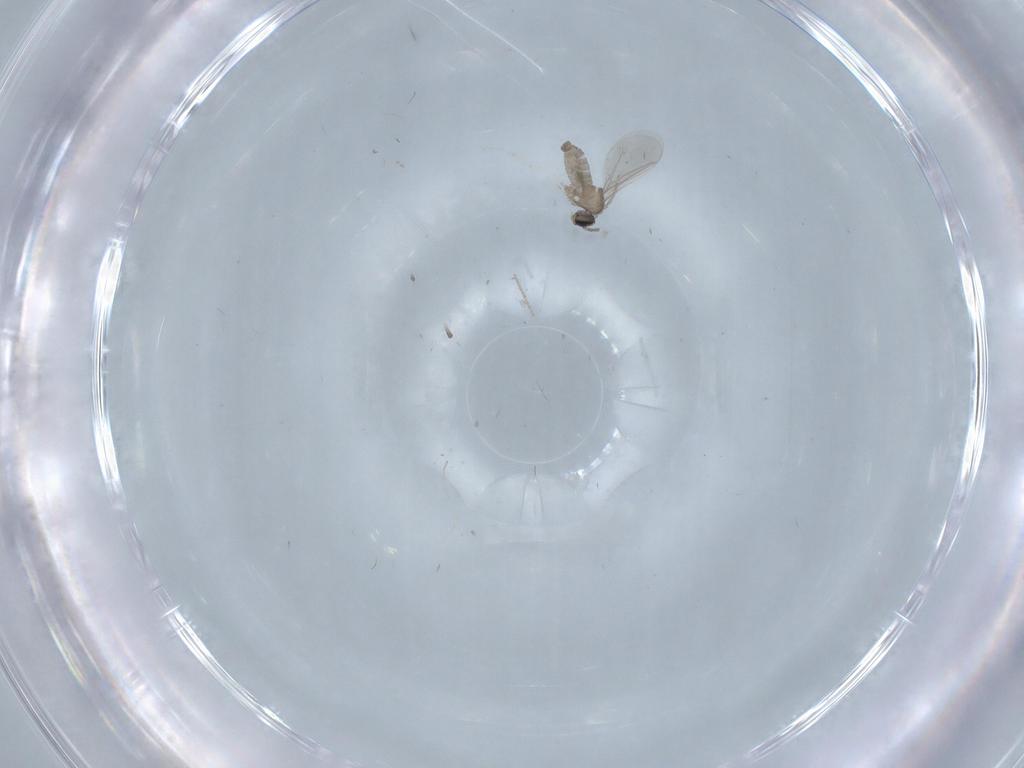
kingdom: Animalia
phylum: Arthropoda
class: Insecta
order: Diptera
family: Cecidomyiidae
